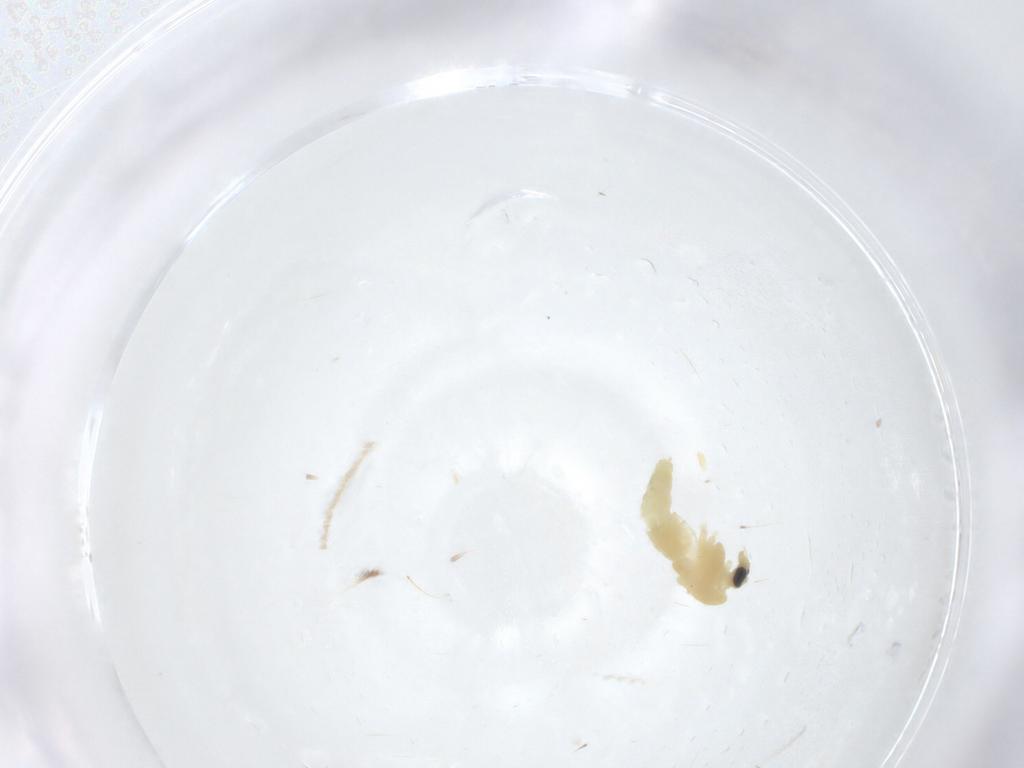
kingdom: Animalia
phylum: Arthropoda
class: Insecta
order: Diptera
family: Chironomidae
